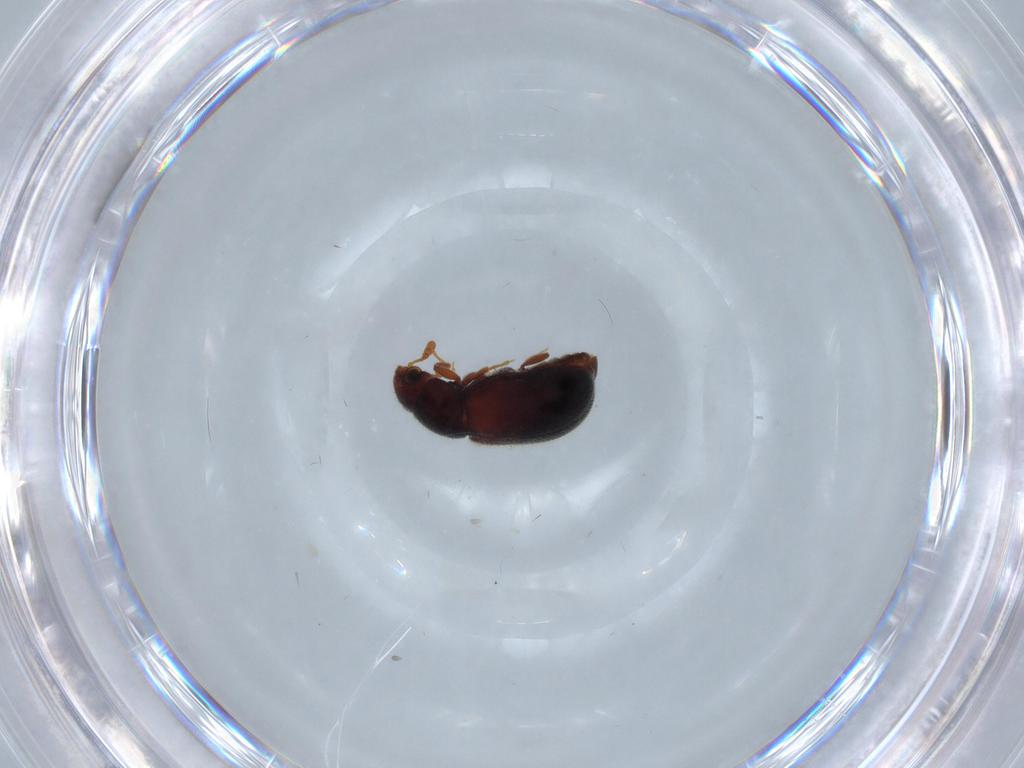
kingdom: Animalia
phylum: Arthropoda
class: Insecta
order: Coleoptera
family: Sphindidae
